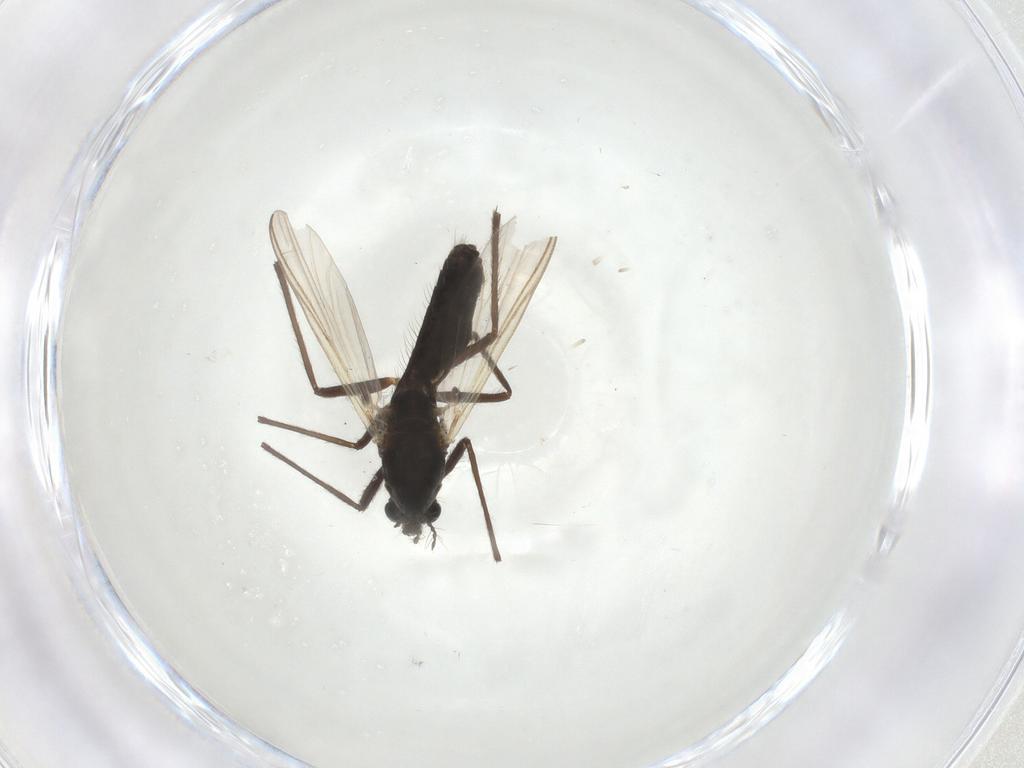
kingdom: Animalia
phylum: Arthropoda
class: Insecta
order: Diptera
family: Chironomidae
